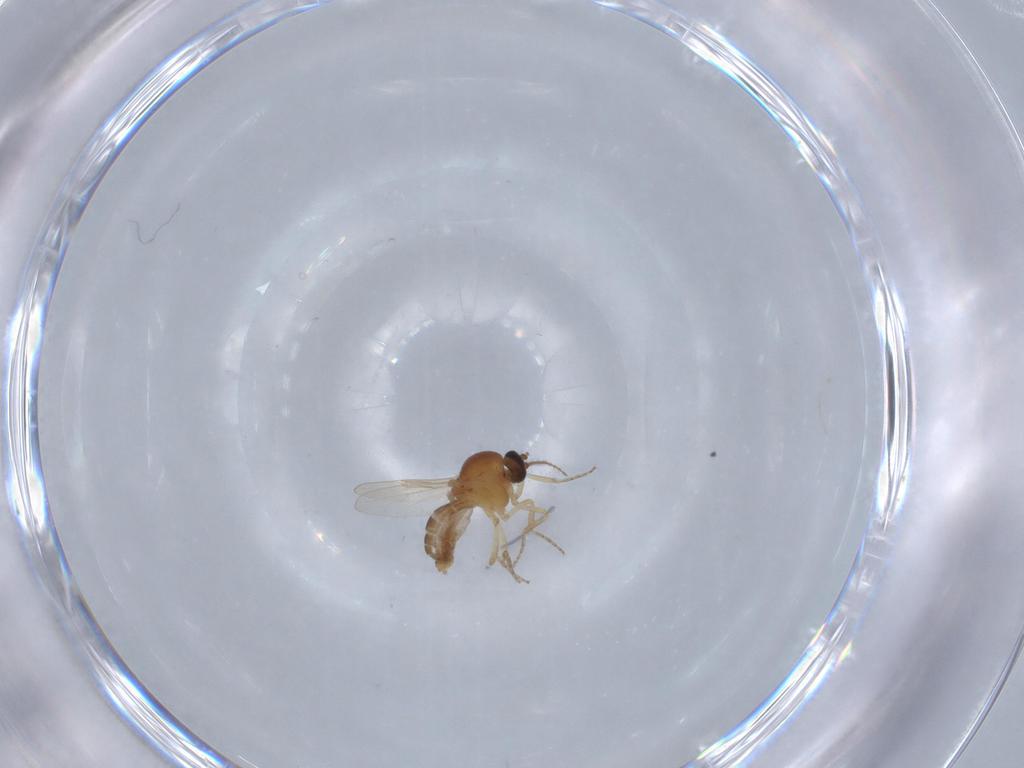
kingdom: Animalia
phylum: Arthropoda
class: Insecta
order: Diptera
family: Ceratopogonidae
